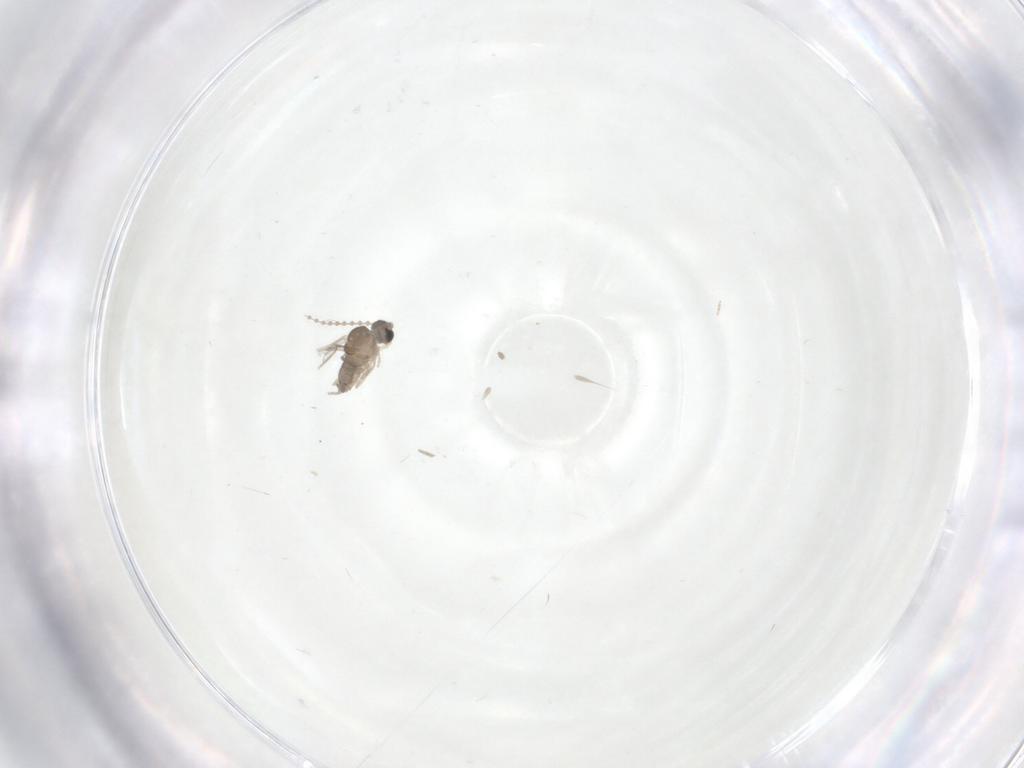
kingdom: Animalia
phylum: Arthropoda
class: Insecta
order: Diptera
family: Cecidomyiidae
